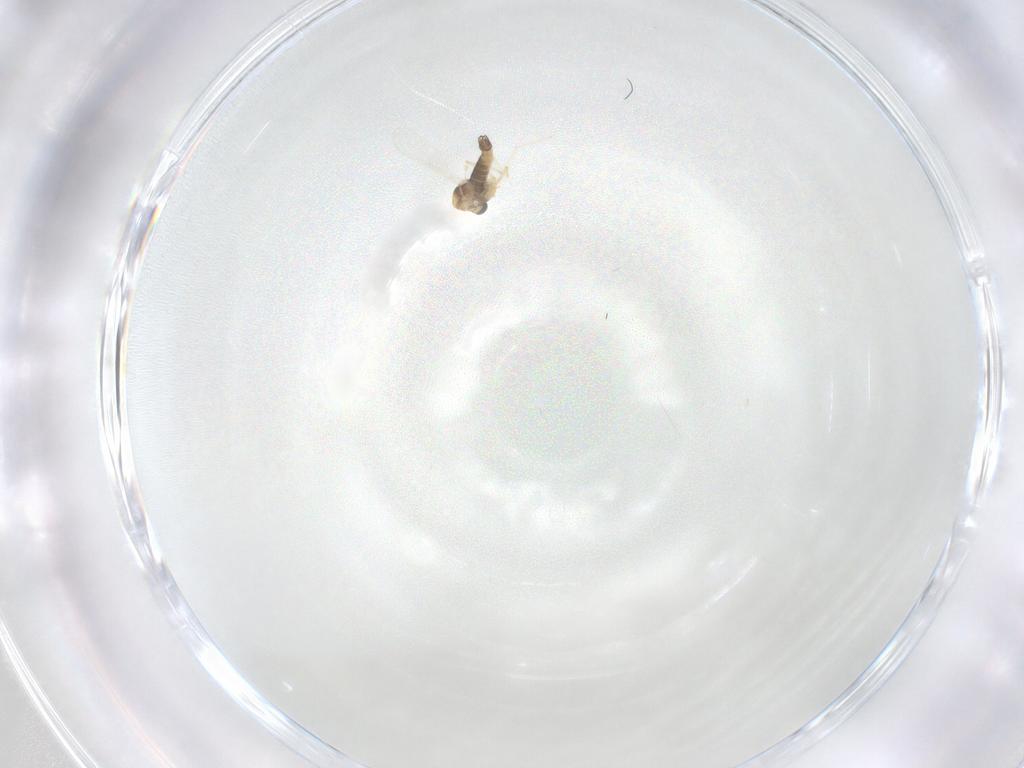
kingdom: Animalia
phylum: Arthropoda
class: Insecta
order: Diptera
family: Chironomidae
